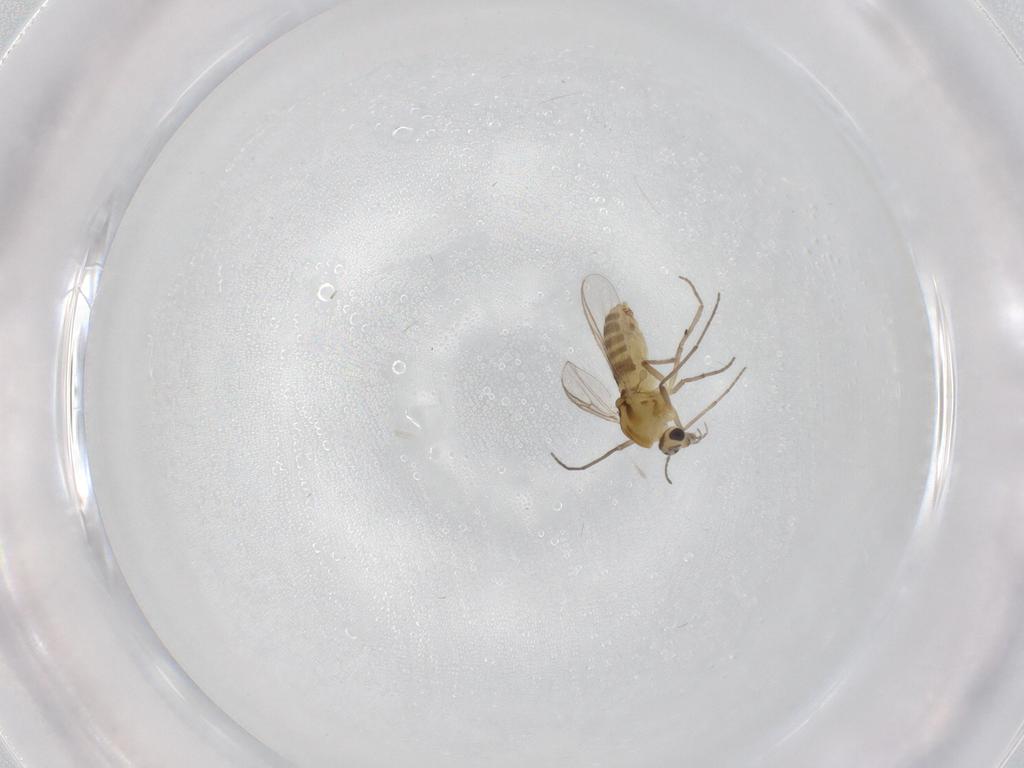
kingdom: Animalia
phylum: Arthropoda
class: Insecta
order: Diptera
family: Chironomidae
